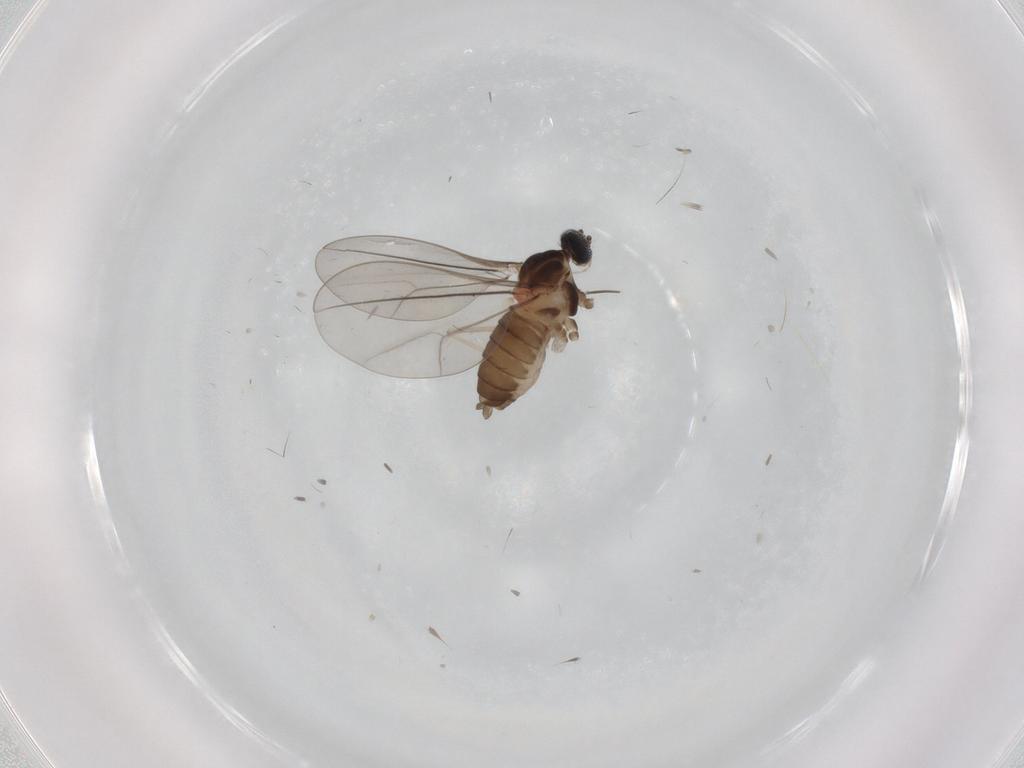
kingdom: Animalia
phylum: Arthropoda
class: Insecta
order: Diptera
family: Cecidomyiidae
